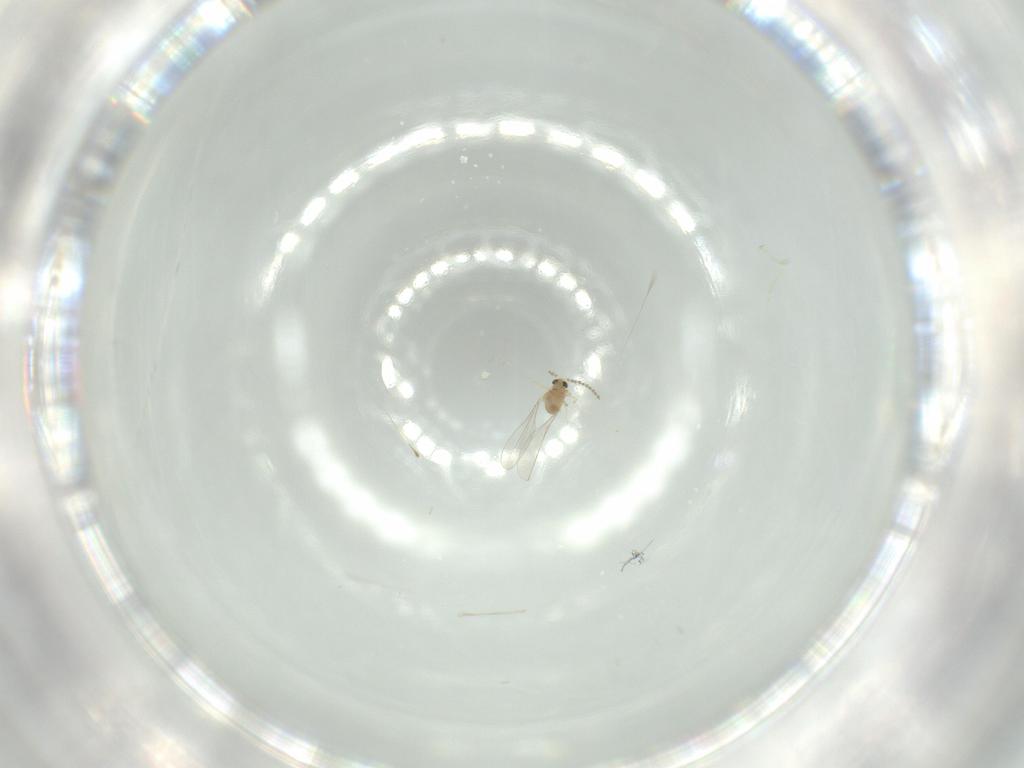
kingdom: Animalia
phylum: Arthropoda
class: Insecta
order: Diptera
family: Cecidomyiidae
